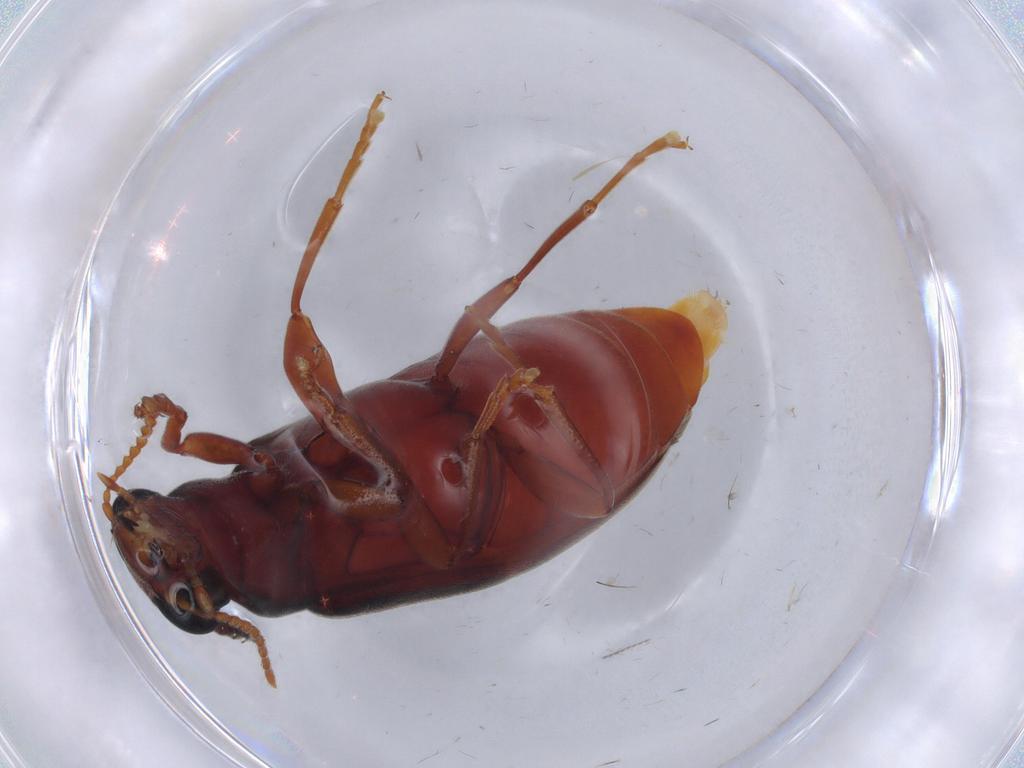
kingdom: Animalia
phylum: Arthropoda
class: Insecta
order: Coleoptera
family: Mycteridae
